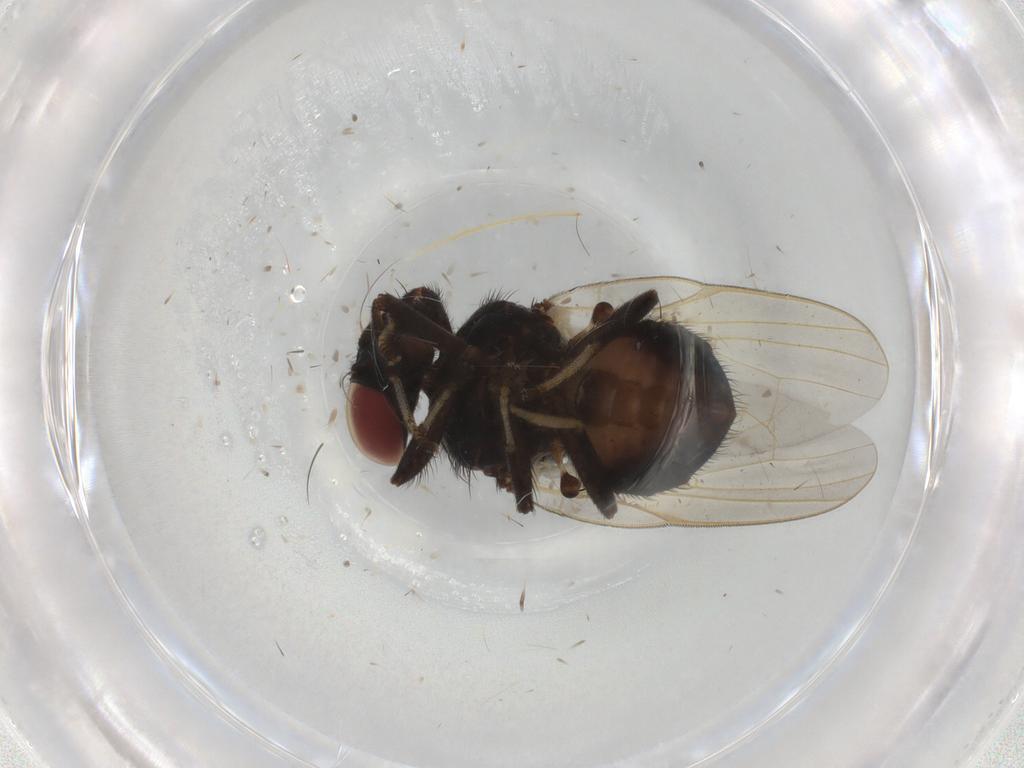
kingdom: Animalia
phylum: Arthropoda
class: Insecta
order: Diptera
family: Lonchaeidae
